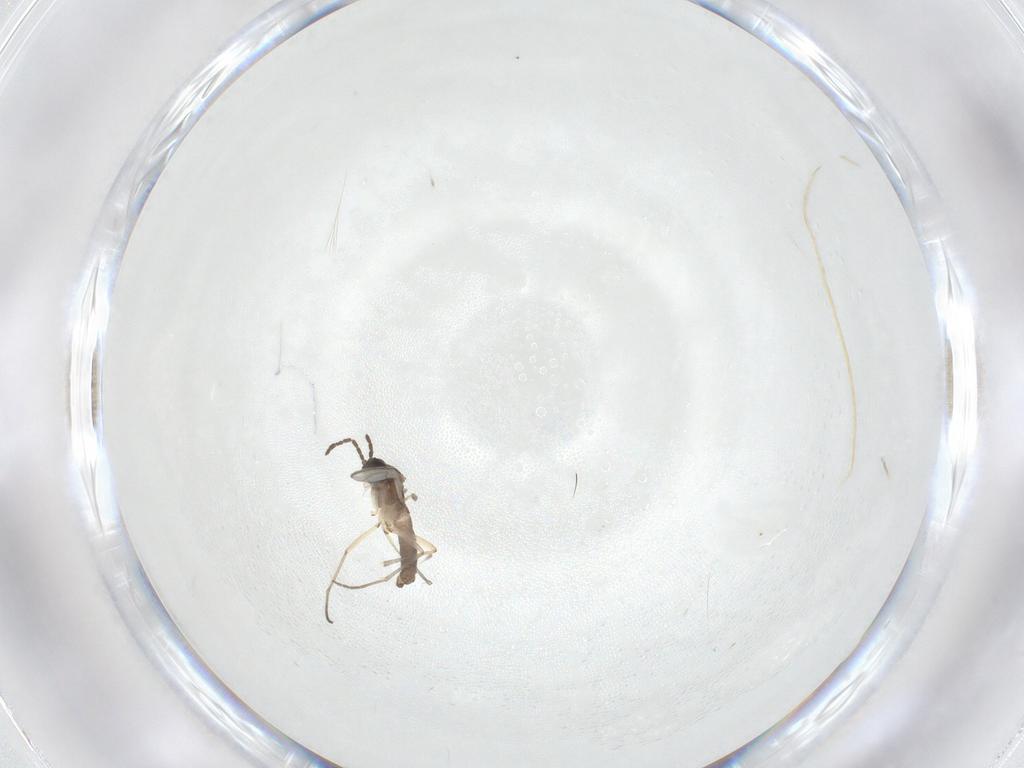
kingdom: Animalia
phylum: Arthropoda
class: Insecta
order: Diptera
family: Sciaridae
